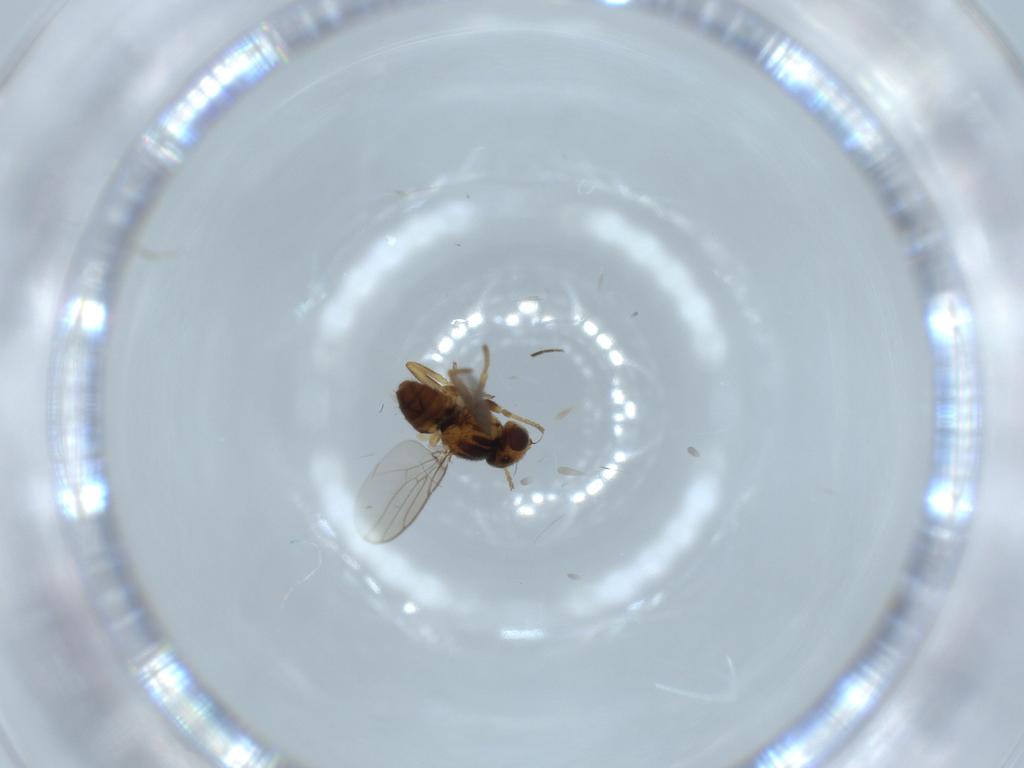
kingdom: Animalia
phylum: Arthropoda
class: Insecta
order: Diptera
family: Chloropidae
